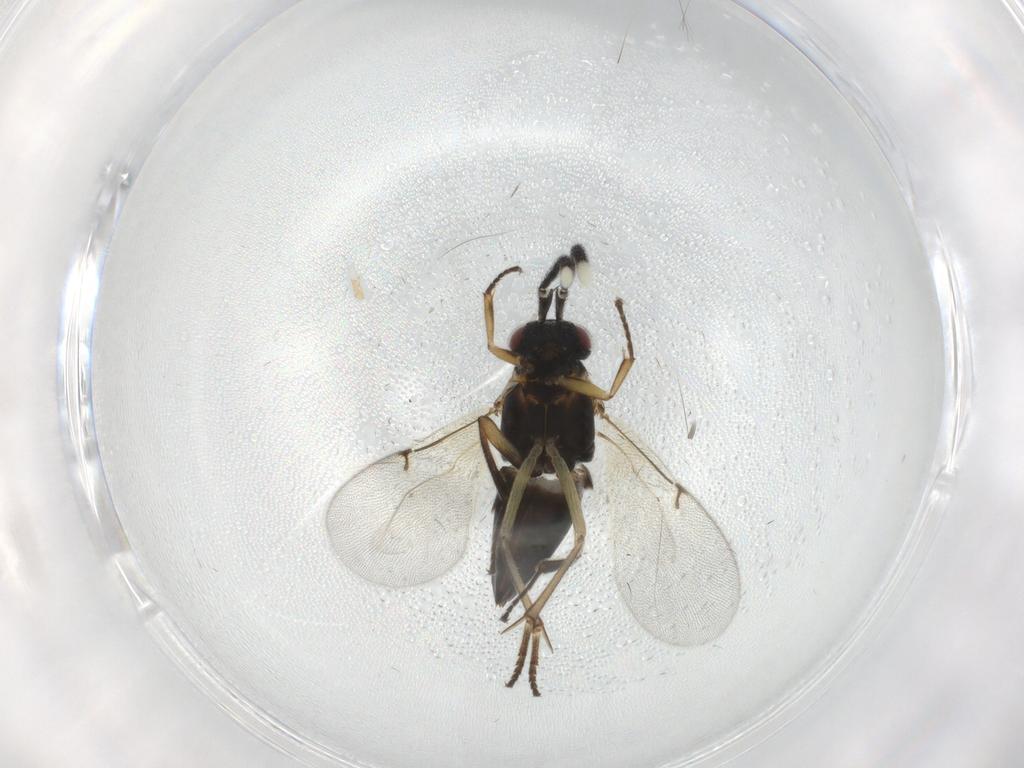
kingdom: Animalia
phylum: Arthropoda
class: Insecta
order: Hymenoptera
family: Encyrtidae
